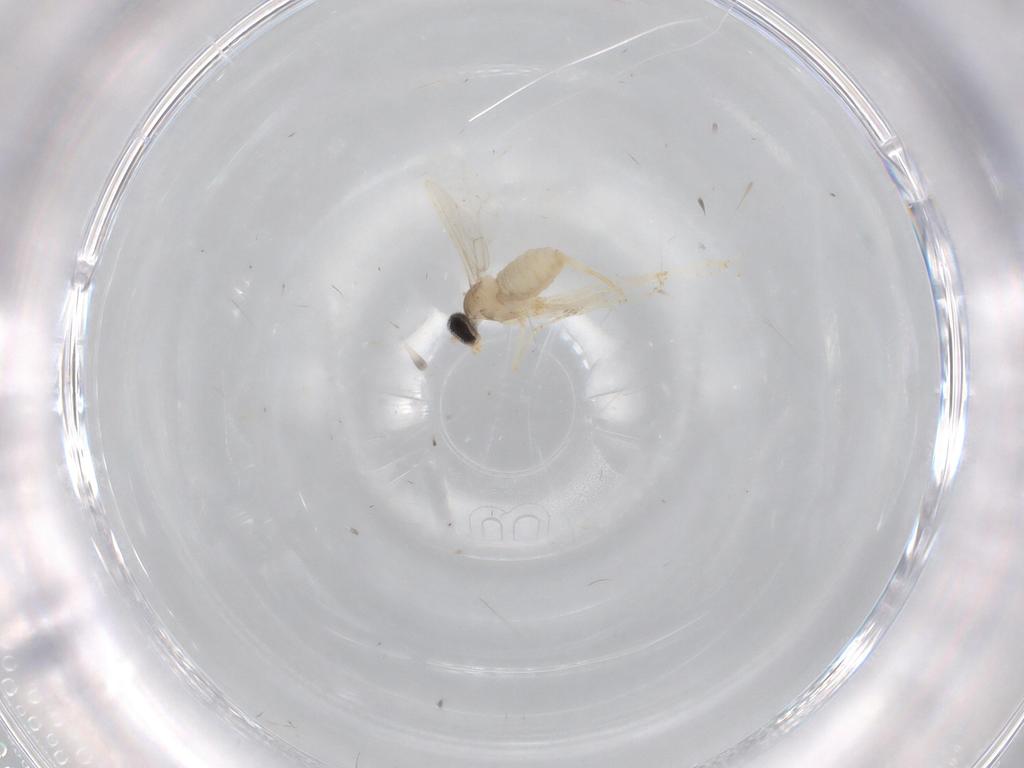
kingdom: Animalia
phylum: Arthropoda
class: Insecta
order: Diptera
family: Cecidomyiidae
